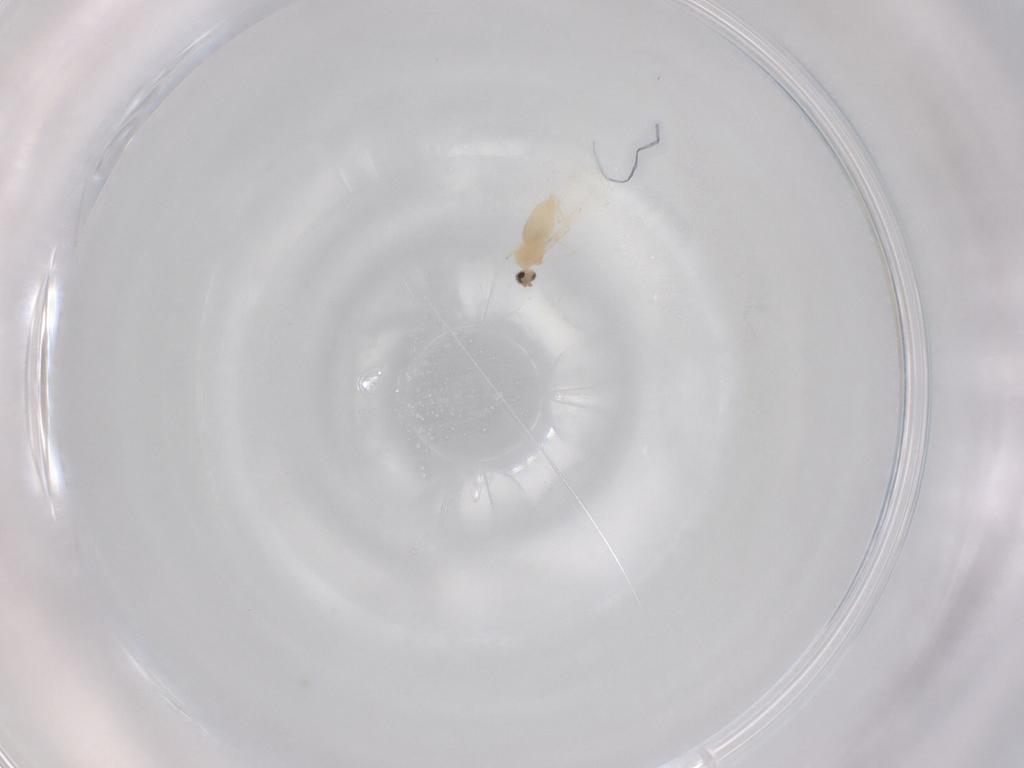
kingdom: Animalia
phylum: Arthropoda
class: Insecta
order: Diptera
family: Cecidomyiidae
